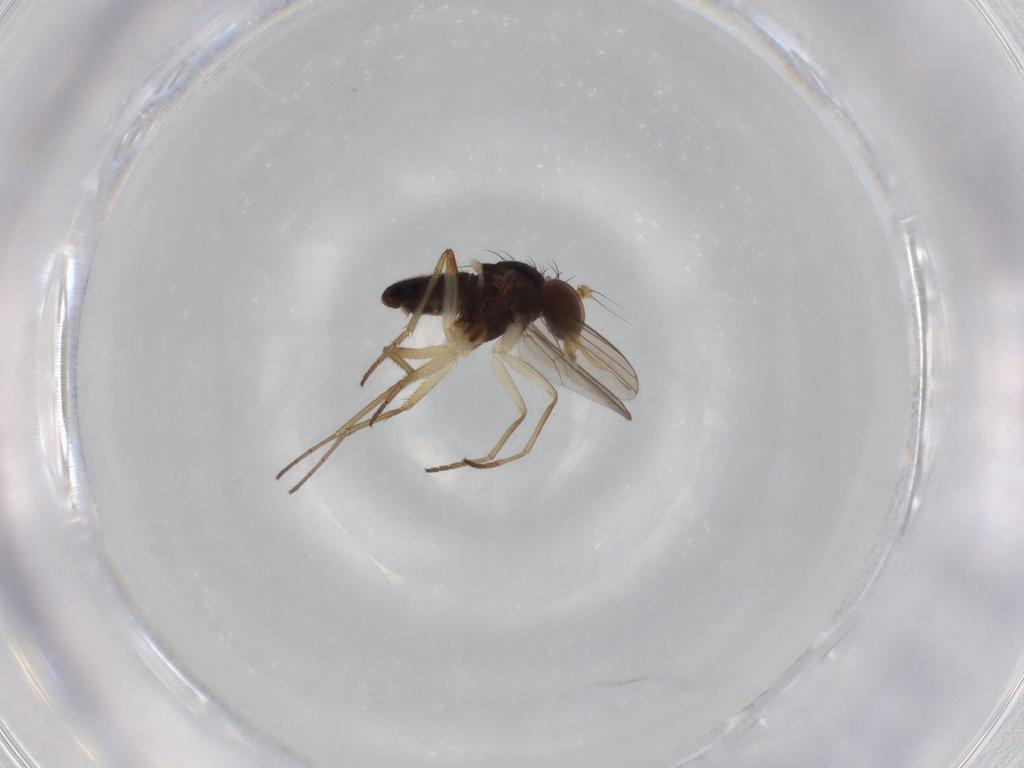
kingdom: Animalia
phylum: Arthropoda
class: Insecta
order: Diptera
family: Dolichopodidae
